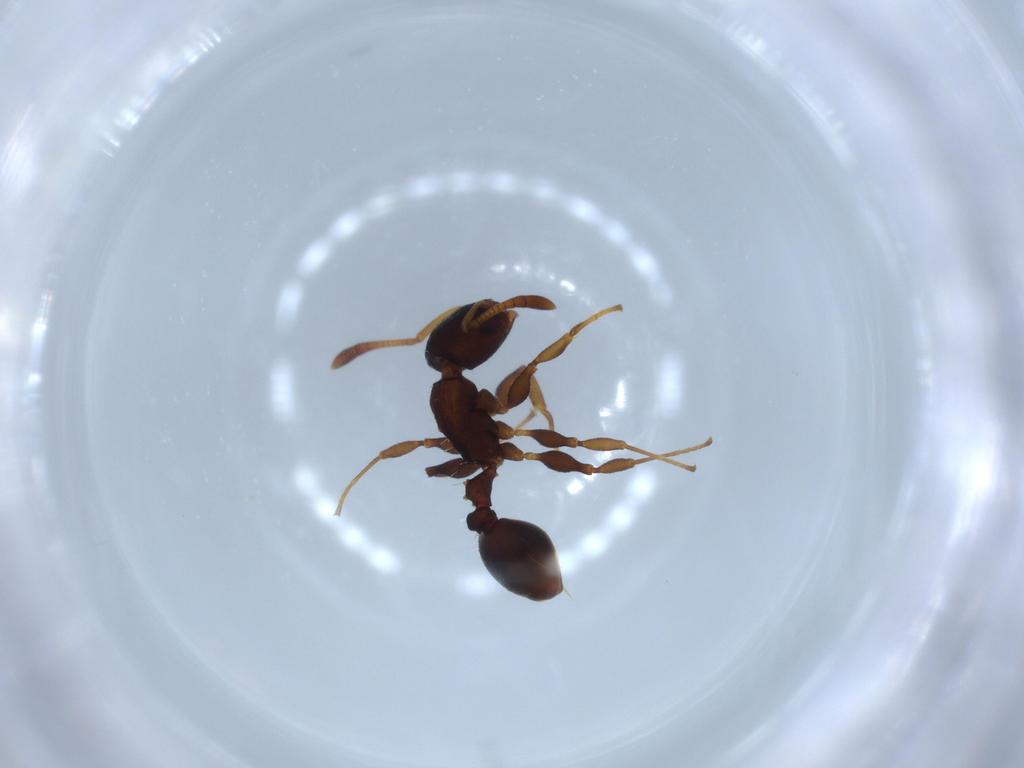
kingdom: Animalia
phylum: Arthropoda
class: Insecta
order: Hymenoptera
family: Formicidae
